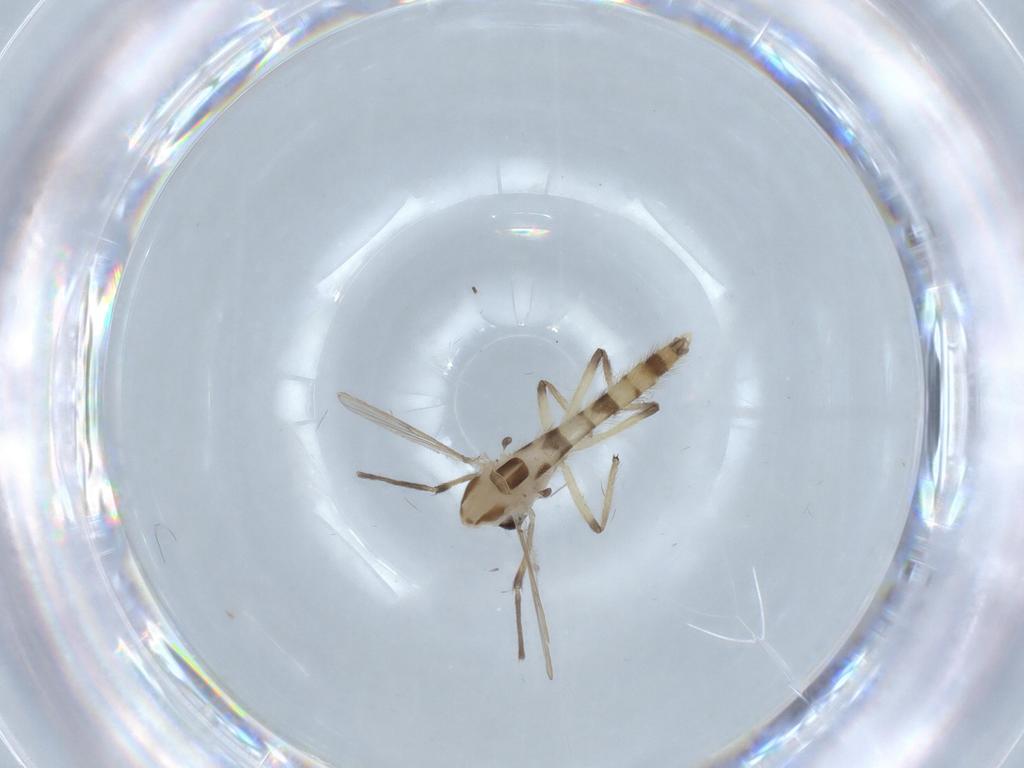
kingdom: Animalia
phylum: Arthropoda
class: Insecta
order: Diptera
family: Chironomidae
